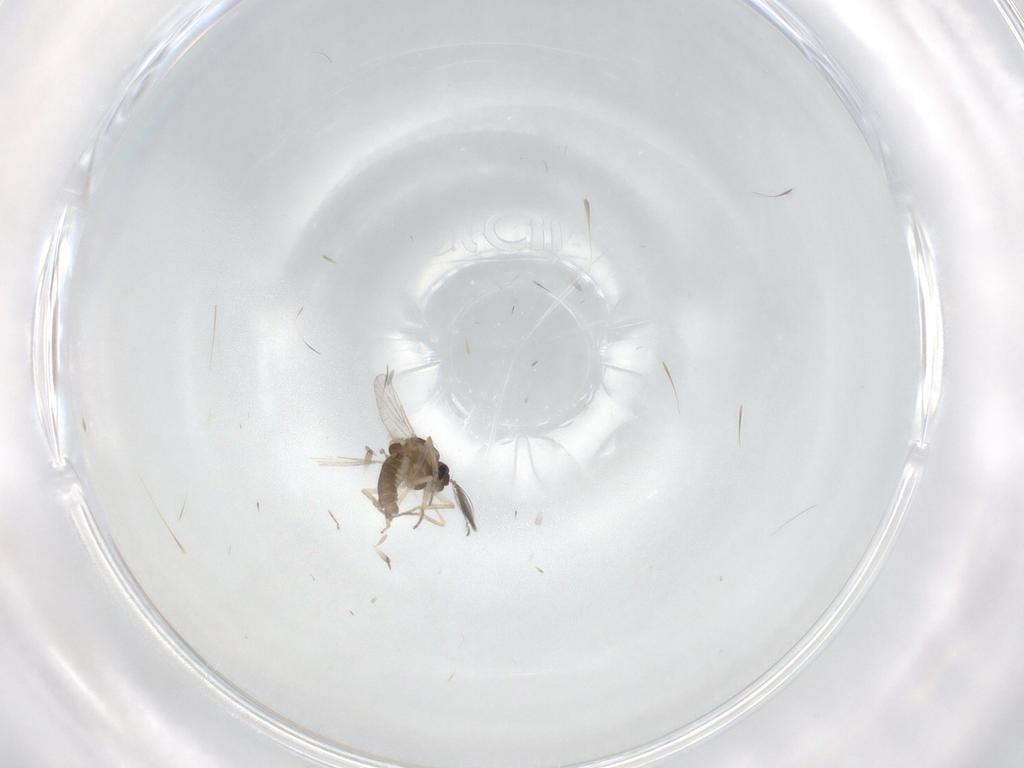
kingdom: Animalia
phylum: Arthropoda
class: Insecta
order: Diptera
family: Ceratopogonidae
